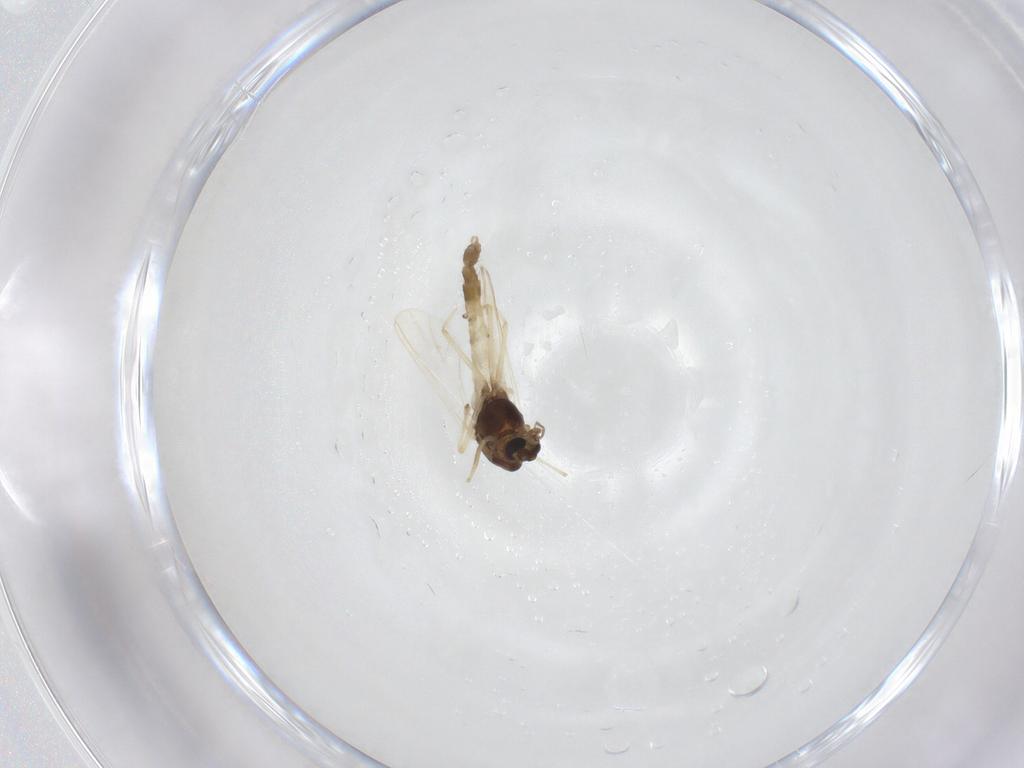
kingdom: Animalia
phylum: Arthropoda
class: Insecta
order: Diptera
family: Chironomidae
